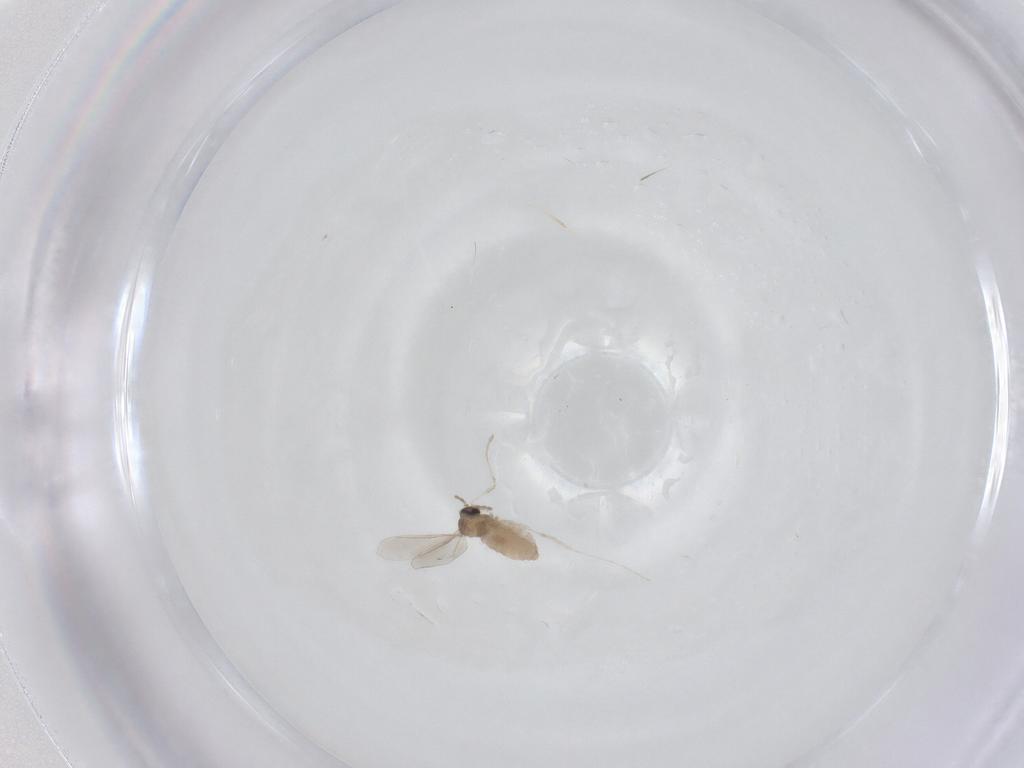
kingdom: Animalia
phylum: Arthropoda
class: Insecta
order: Diptera
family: Cecidomyiidae
